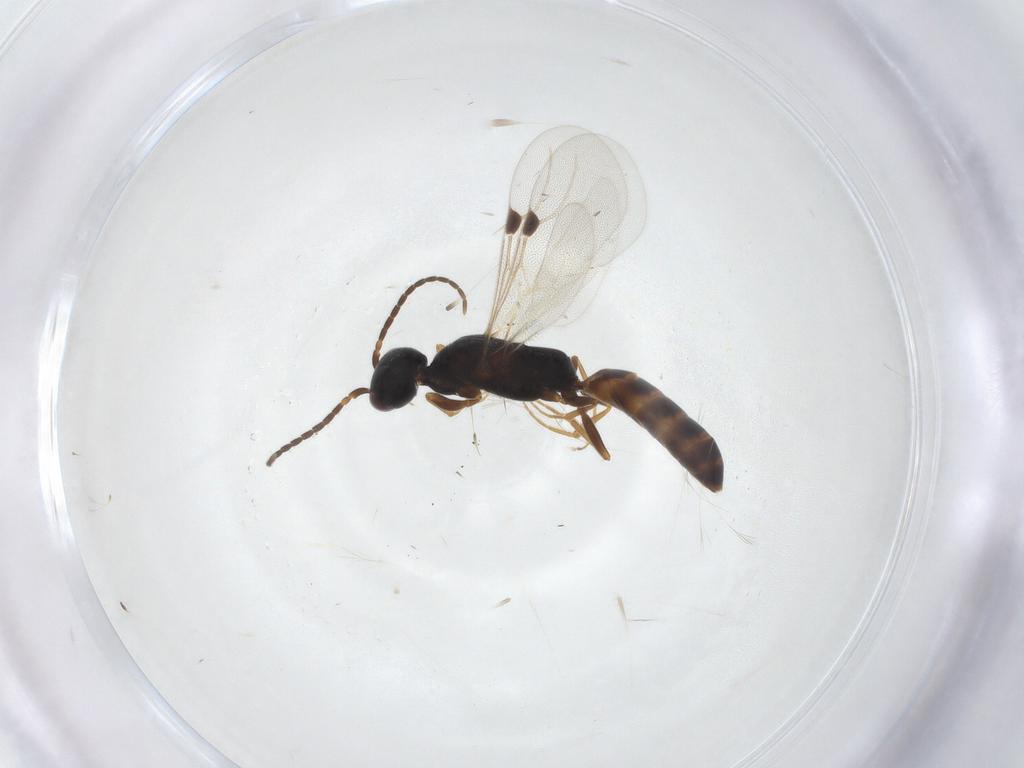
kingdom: Animalia
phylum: Arthropoda
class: Insecta
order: Hymenoptera
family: Bethylidae
